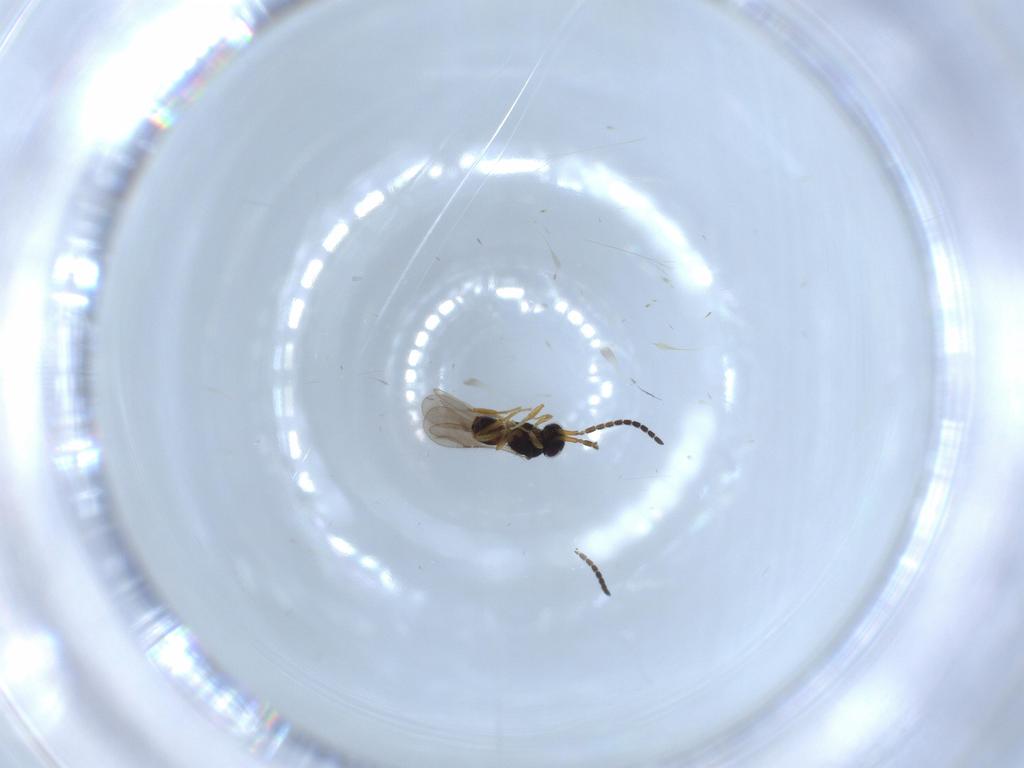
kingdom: Animalia
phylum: Arthropoda
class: Insecta
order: Hymenoptera
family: Ceraphronidae
